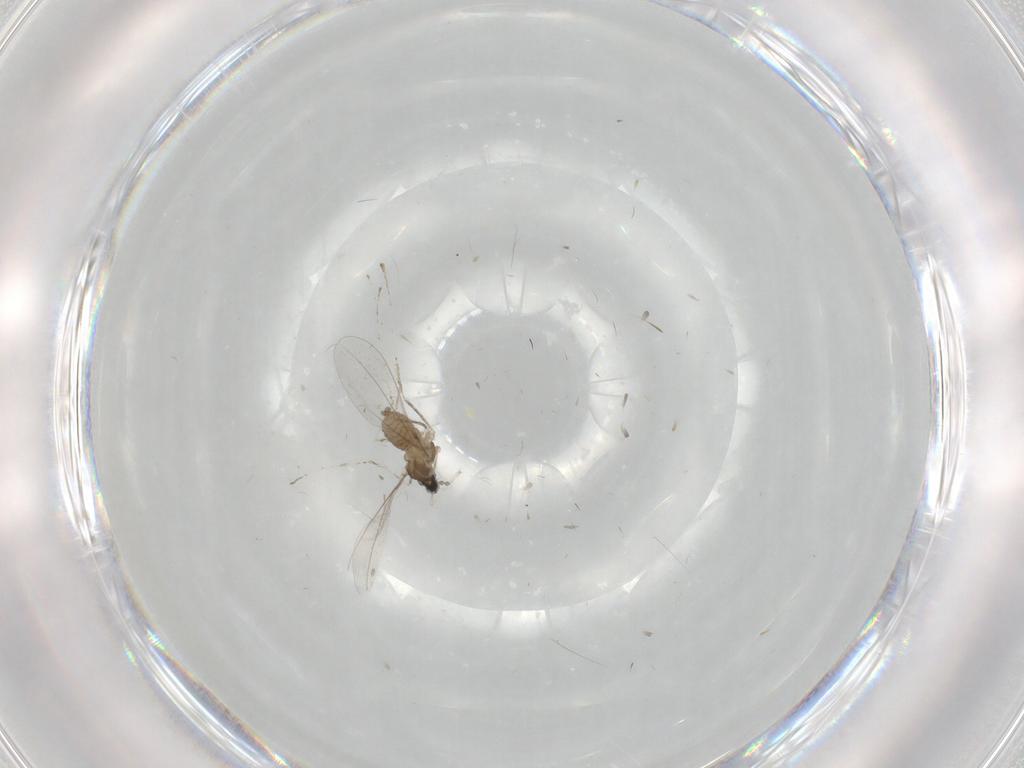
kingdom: Animalia
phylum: Arthropoda
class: Insecta
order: Diptera
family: Cecidomyiidae
